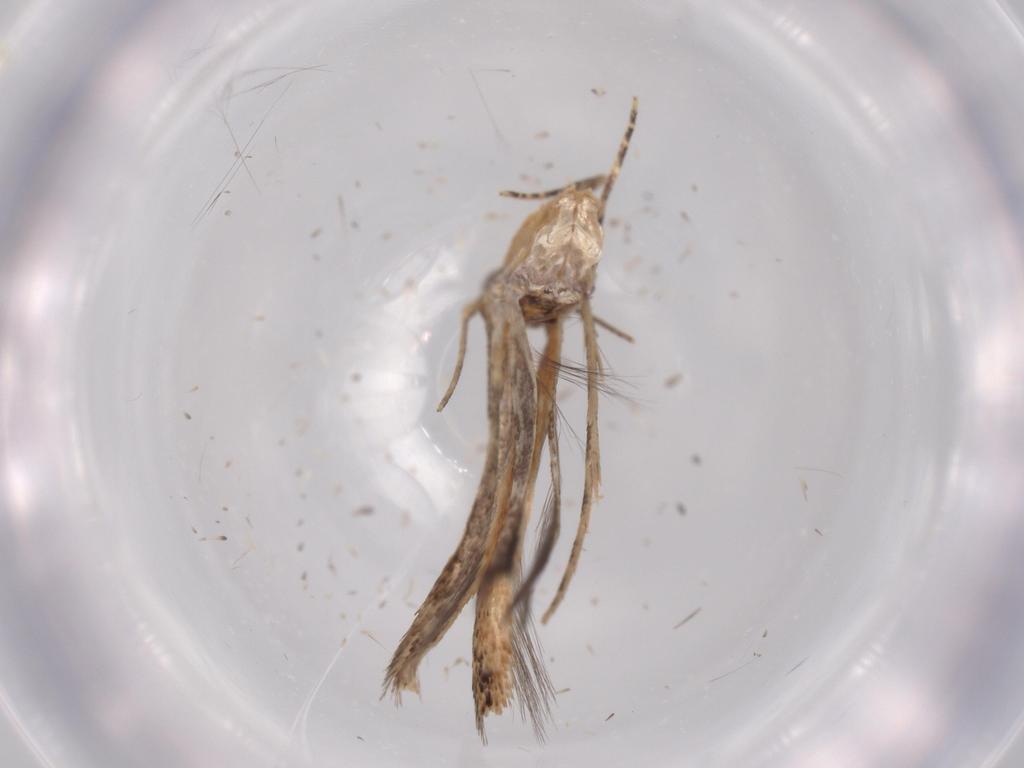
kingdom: Animalia
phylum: Arthropoda
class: Insecta
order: Lepidoptera
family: Lyonetiidae
